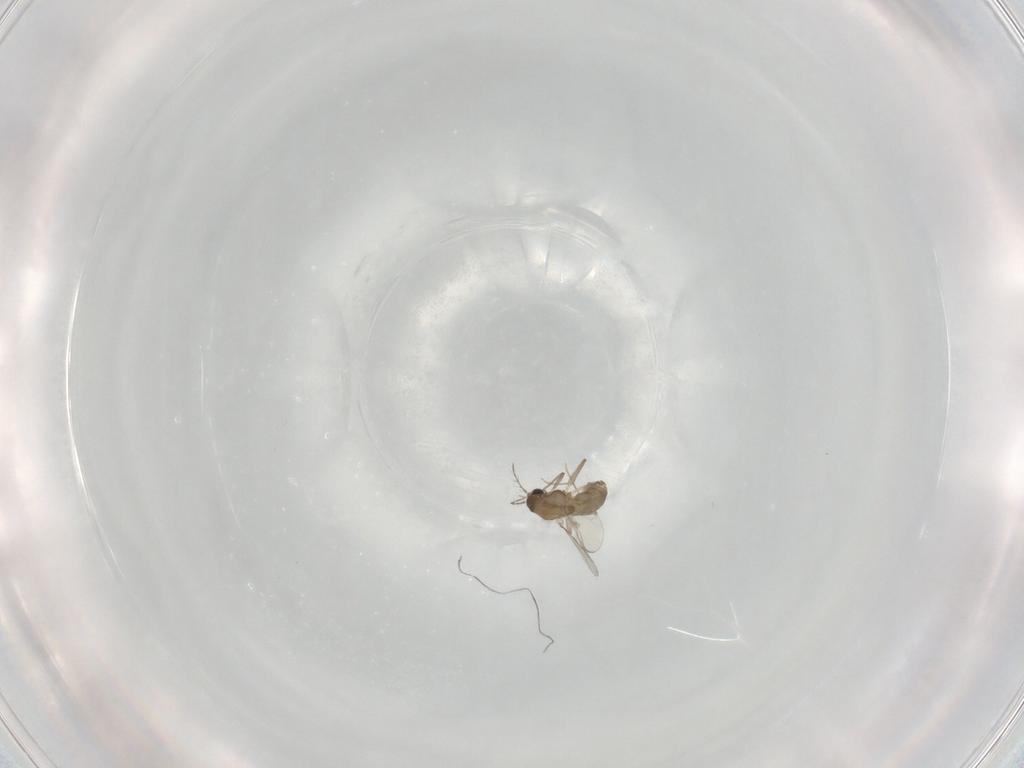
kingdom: Animalia
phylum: Arthropoda
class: Insecta
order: Diptera
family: Chironomidae
